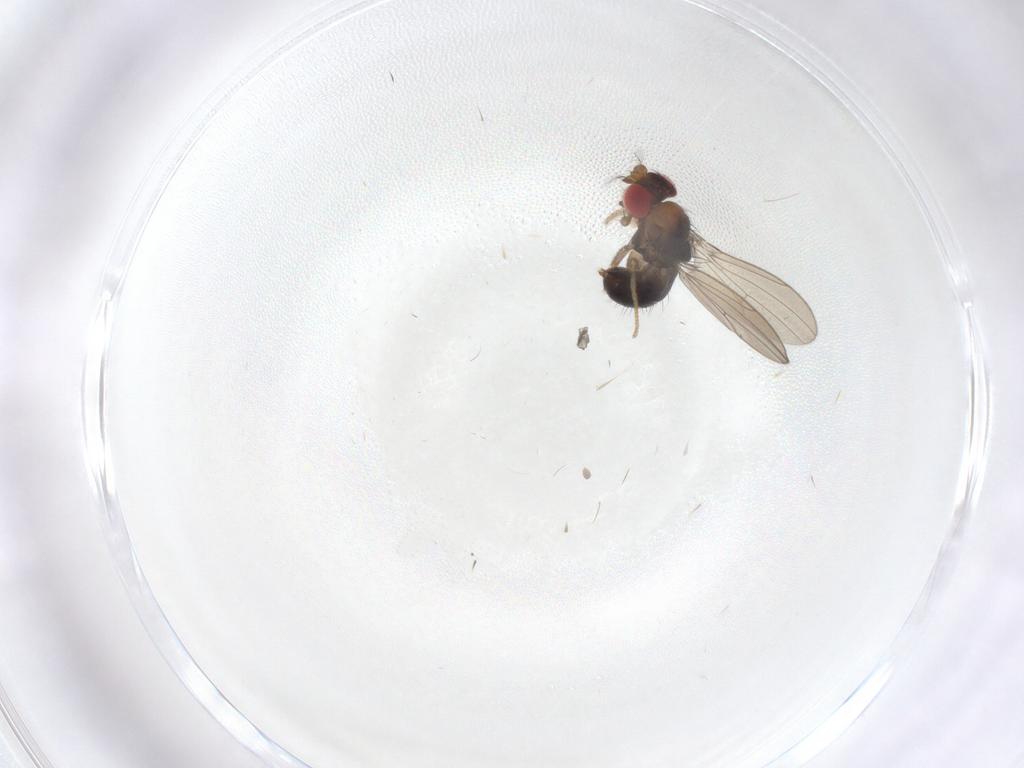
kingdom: Animalia
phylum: Arthropoda
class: Insecta
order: Diptera
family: Drosophilidae
